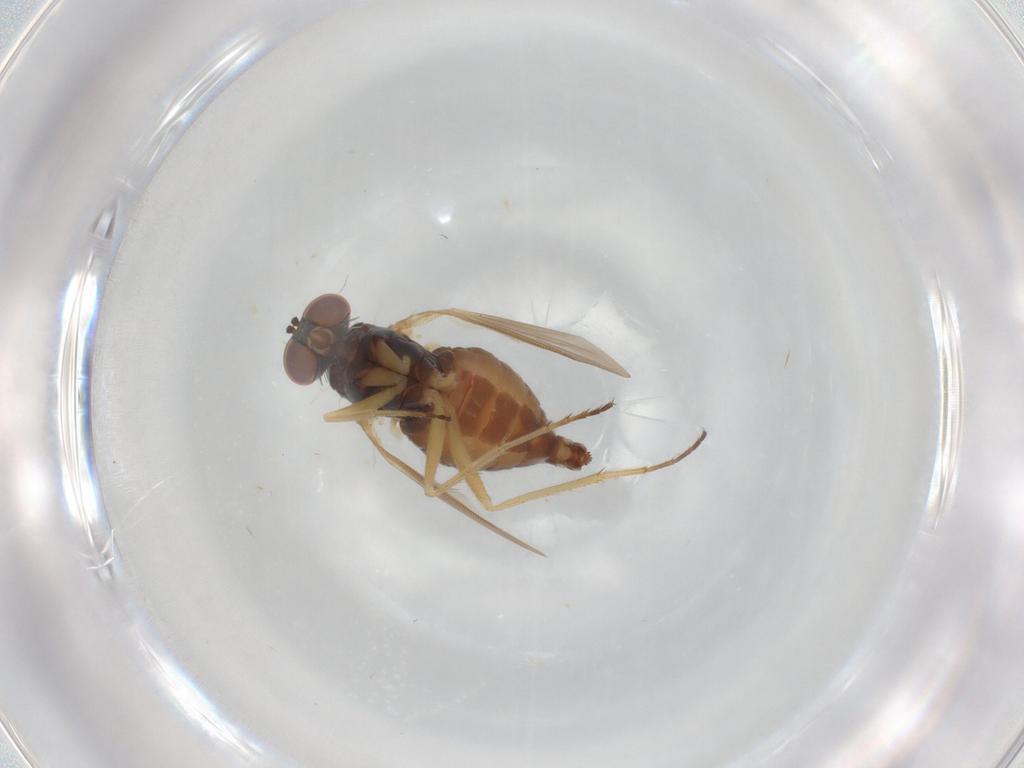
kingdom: Animalia
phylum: Arthropoda
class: Insecta
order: Diptera
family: Dolichopodidae
